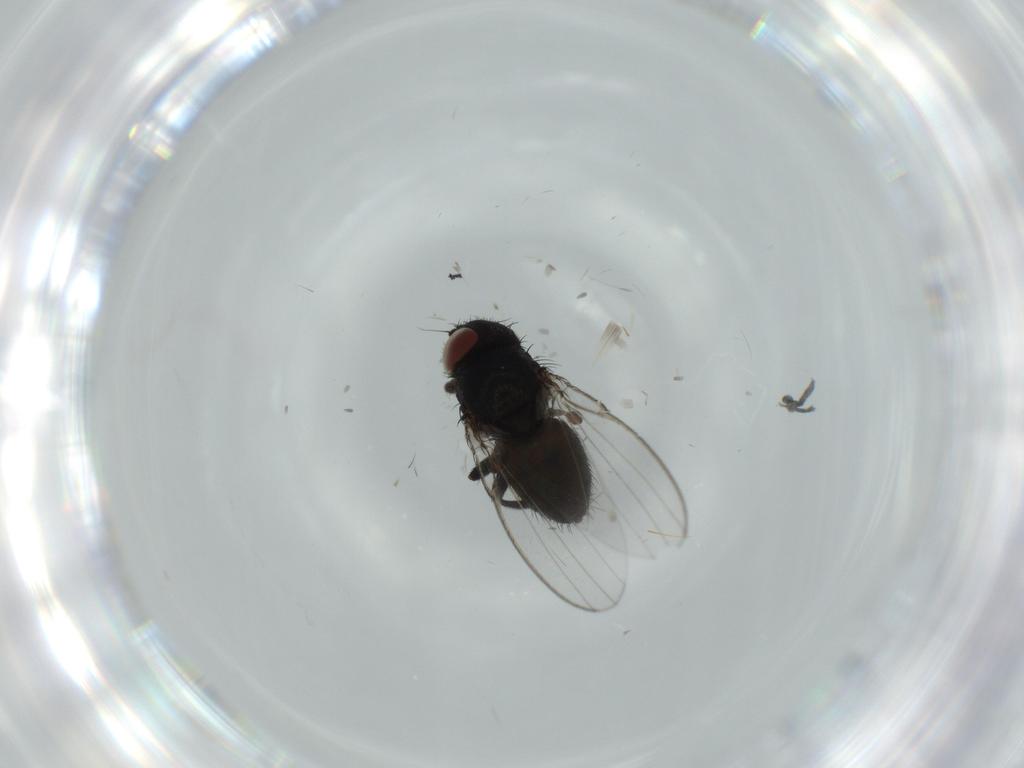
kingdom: Animalia
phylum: Arthropoda
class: Insecta
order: Diptera
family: Milichiidae
